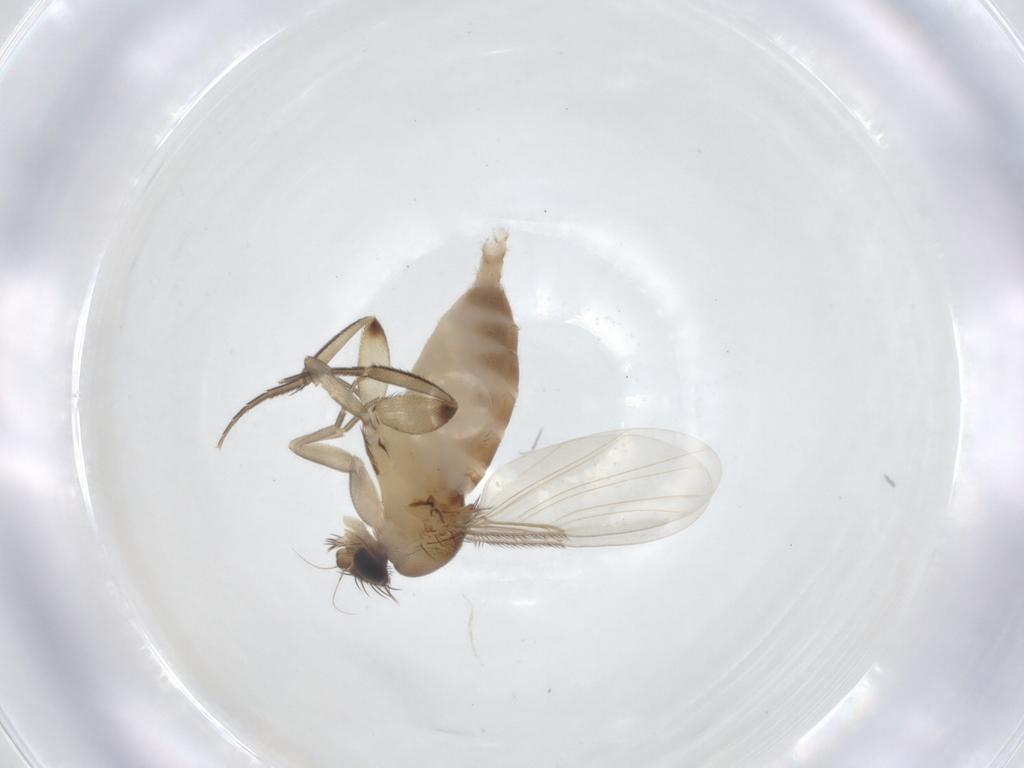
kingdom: Animalia
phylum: Arthropoda
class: Insecta
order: Diptera
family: Phoridae
